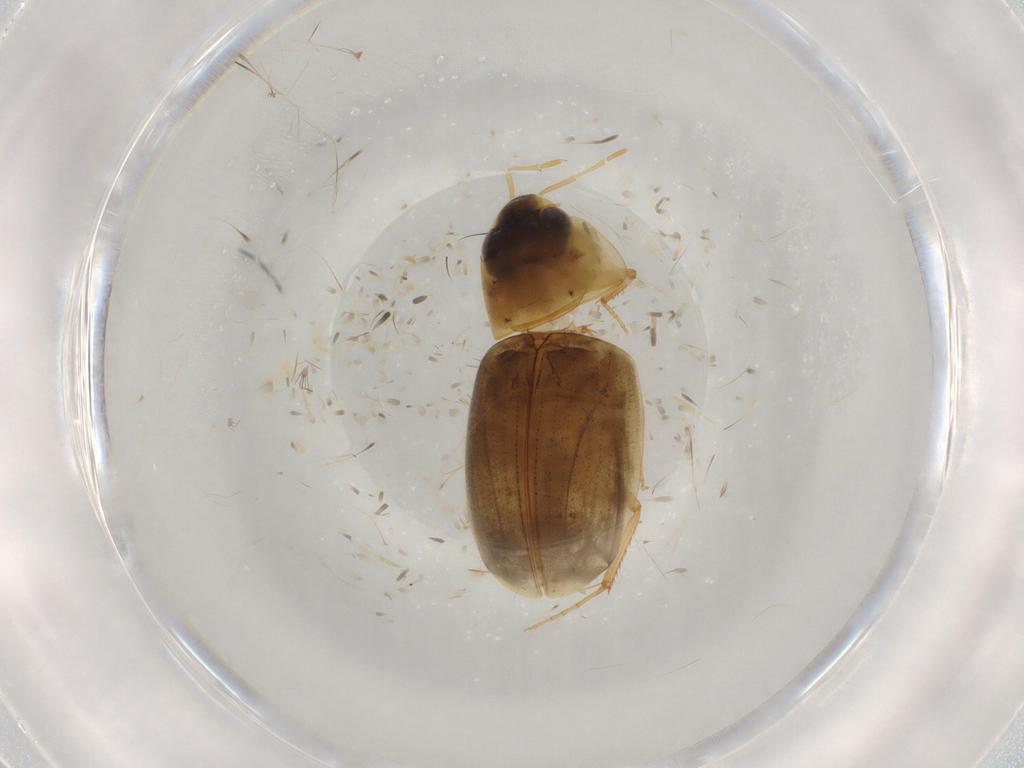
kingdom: Animalia
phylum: Arthropoda
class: Insecta
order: Coleoptera
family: Hydrophilidae
